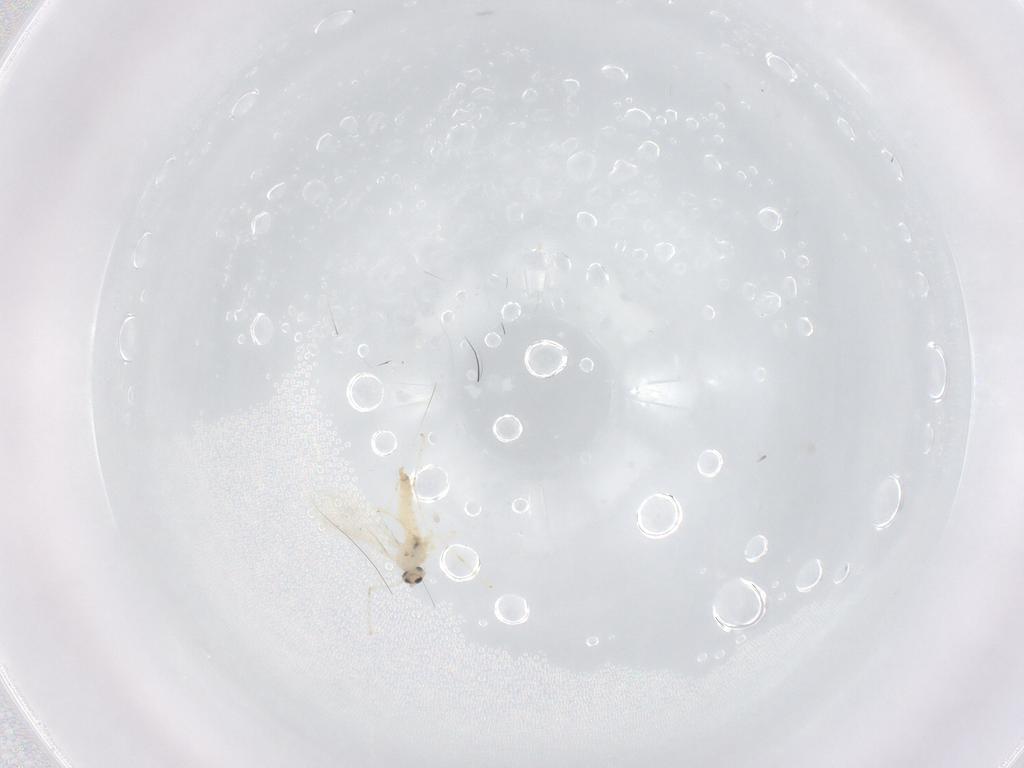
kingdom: Animalia
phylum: Arthropoda
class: Insecta
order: Diptera
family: Cecidomyiidae
